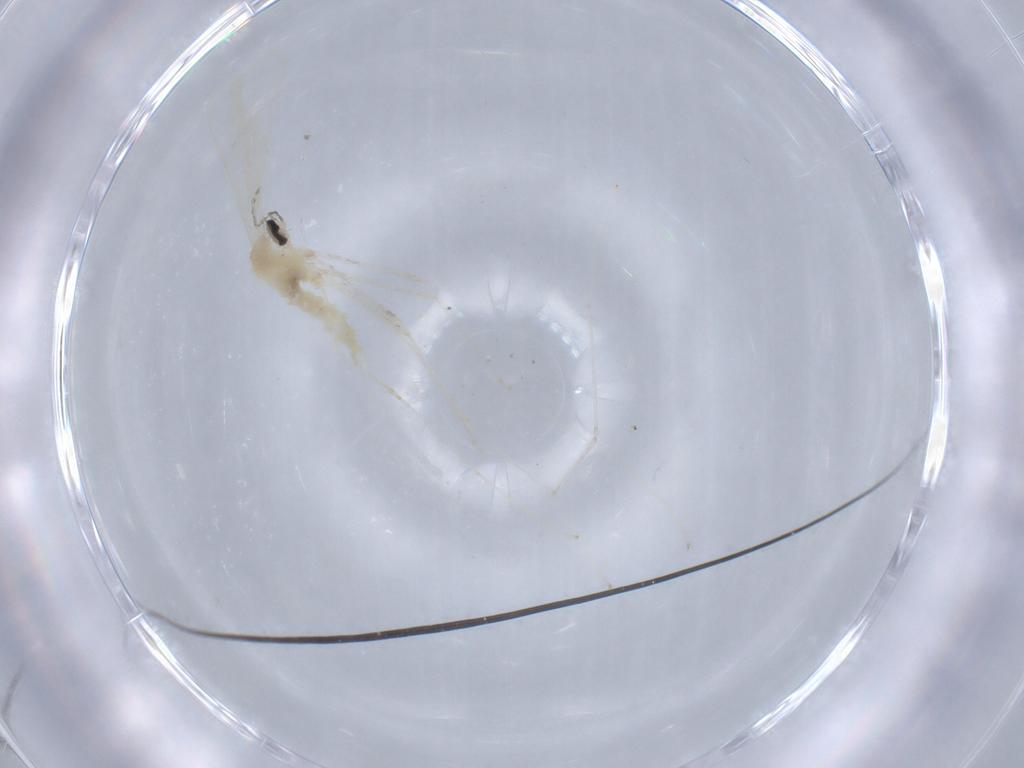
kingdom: Animalia
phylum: Arthropoda
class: Insecta
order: Diptera
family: Cecidomyiidae
